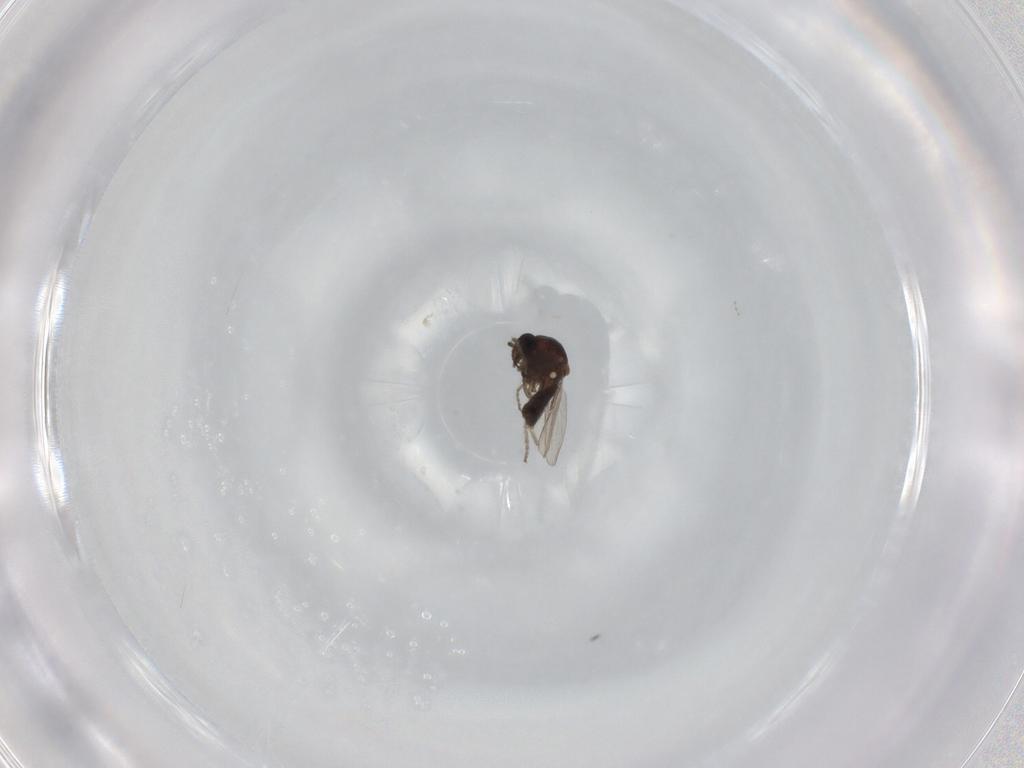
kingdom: Animalia
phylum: Arthropoda
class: Insecta
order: Diptera
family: Ceratopogonidae
